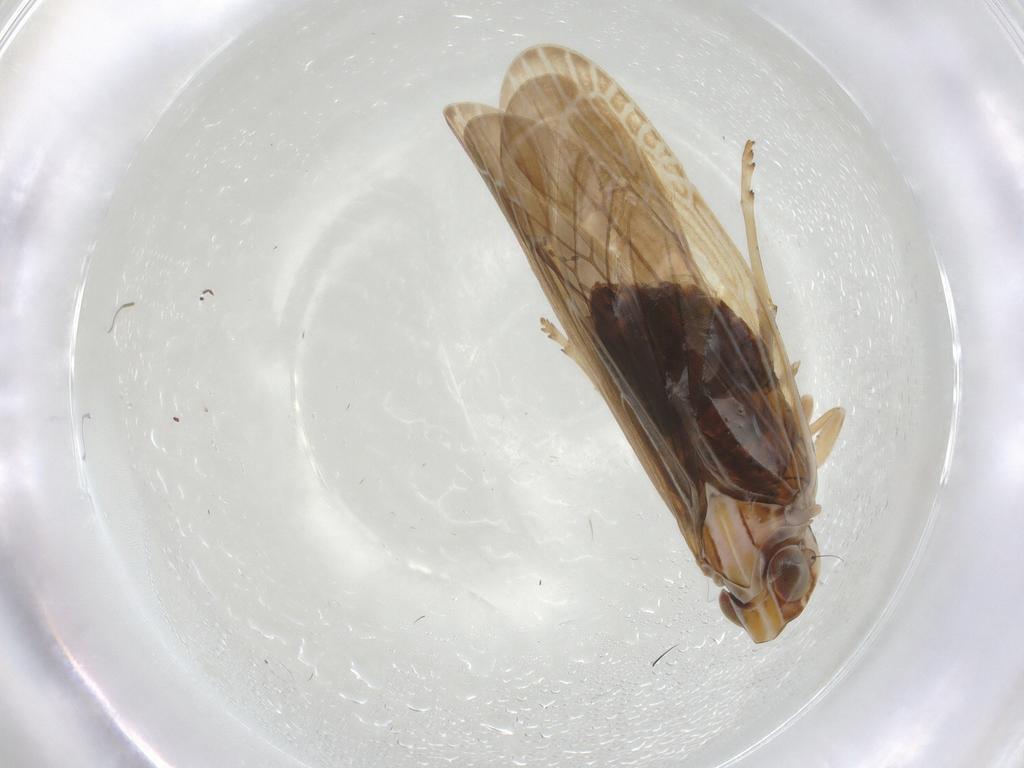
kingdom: Animalia
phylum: Arthropoda
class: Insecta
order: Hemiptera
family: Achilidae
